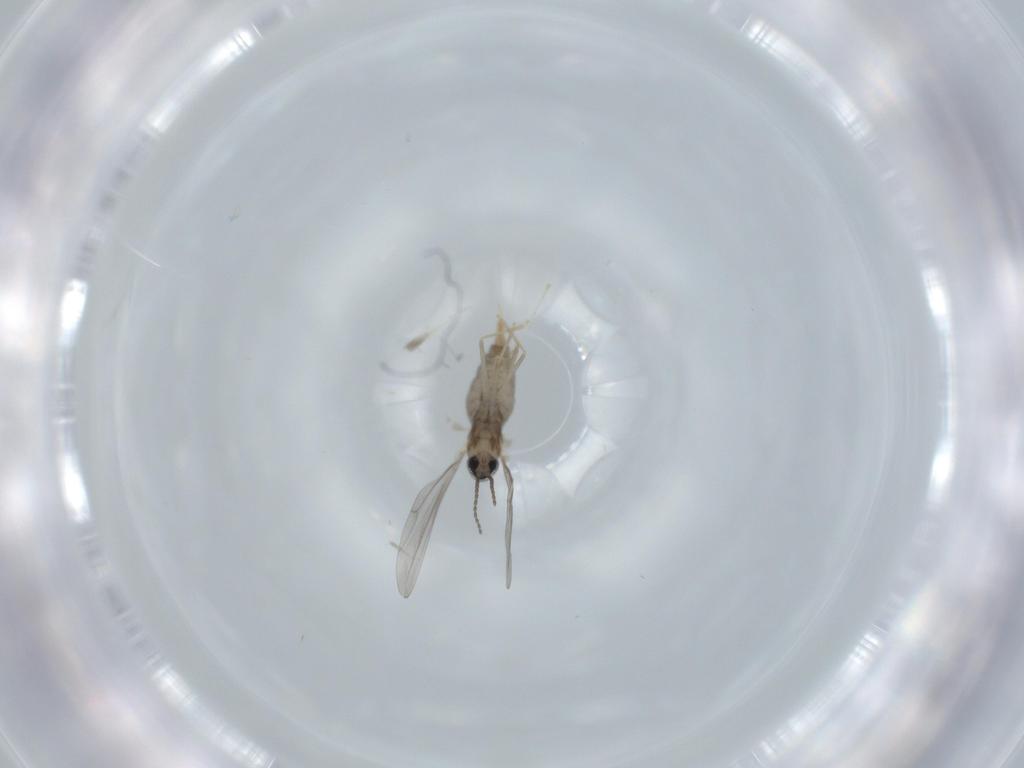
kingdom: Animalia
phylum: Arthropoda
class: Insecta
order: Diptera
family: Cecidomyiidae
